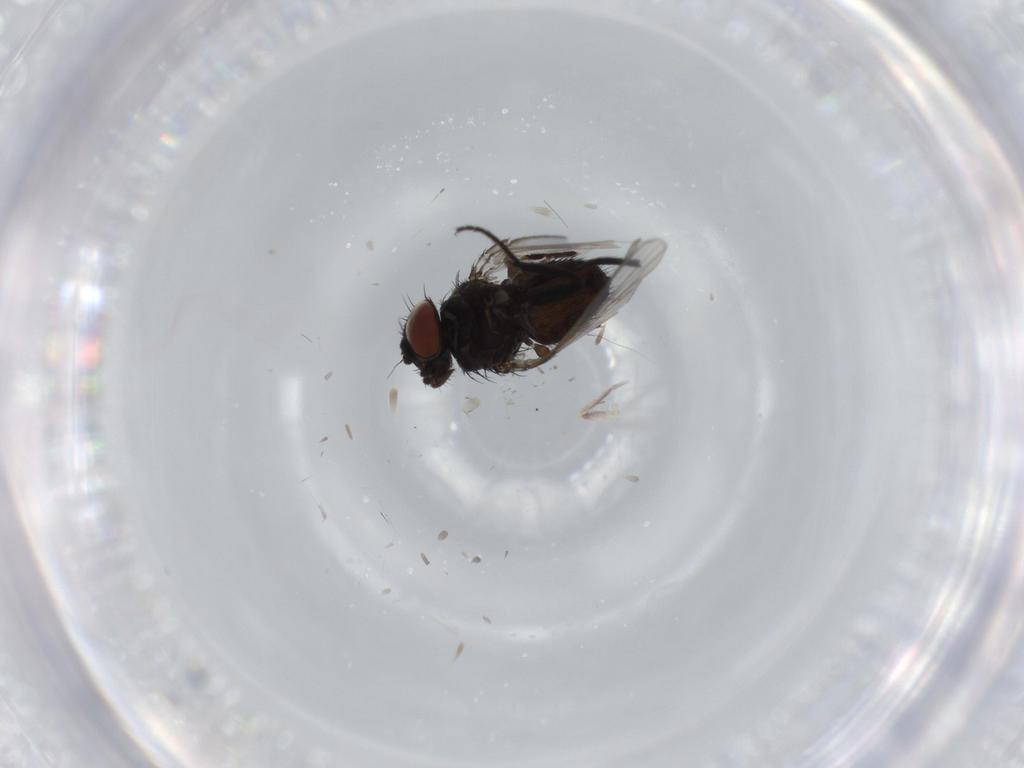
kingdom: Animalia
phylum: Arthropoda
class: Insecta
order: Diptera
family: Milichiidae
